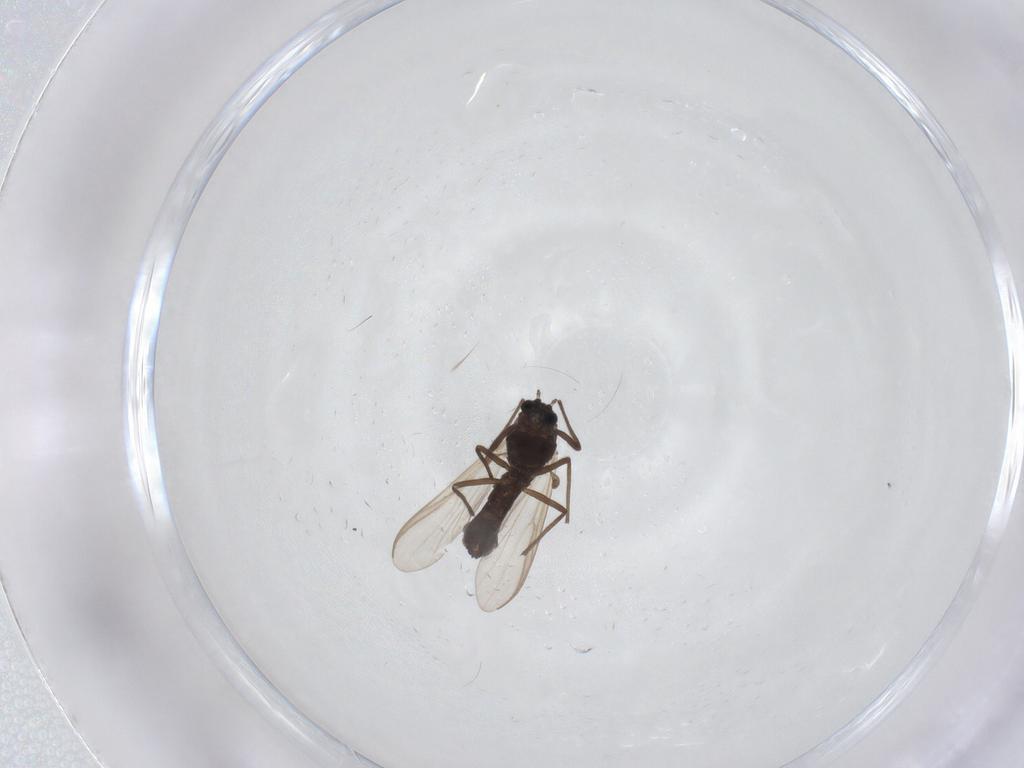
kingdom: Animalia
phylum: Arthropoda
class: Insecta
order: Diptera
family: Chironomidae
